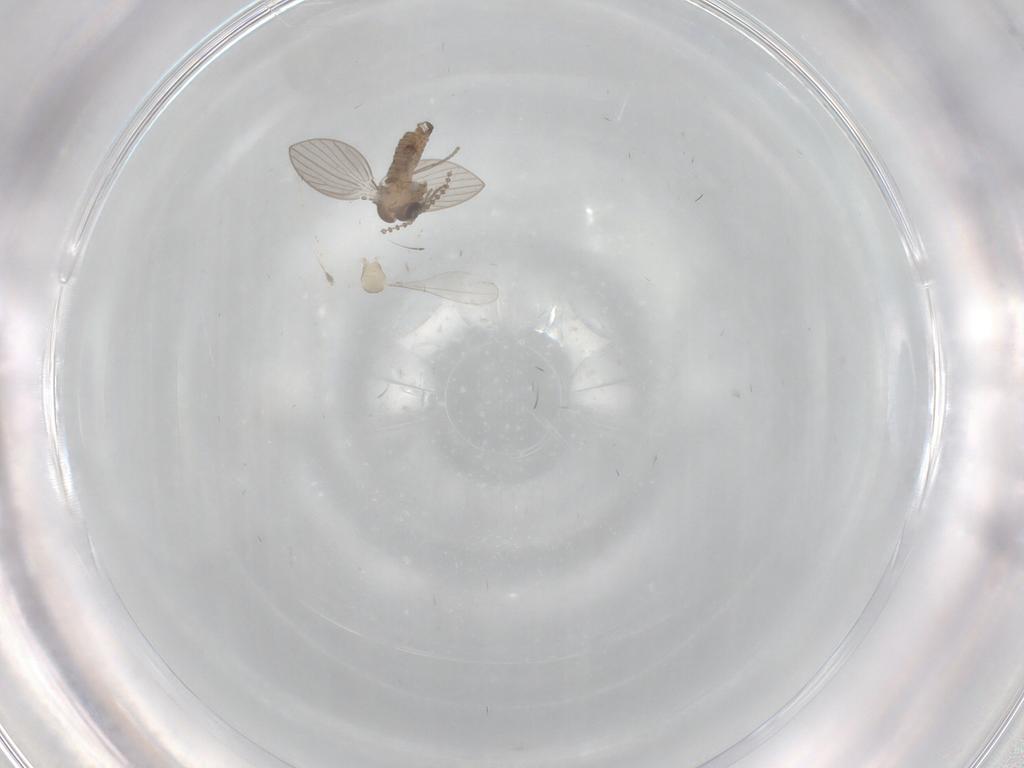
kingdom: Animalia
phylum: Arthropoda
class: Insecta
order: Diptera
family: Cecidomyiidae
